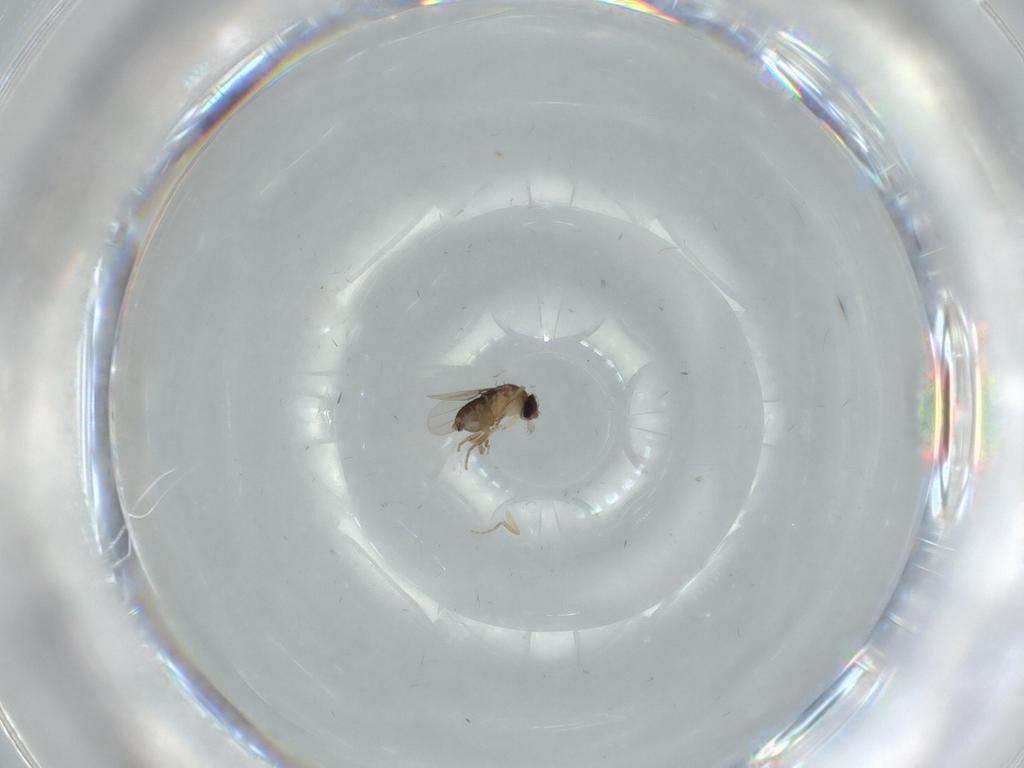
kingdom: Animalia
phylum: Arthropoda
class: Insecta
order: Diptera
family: Phoridae
